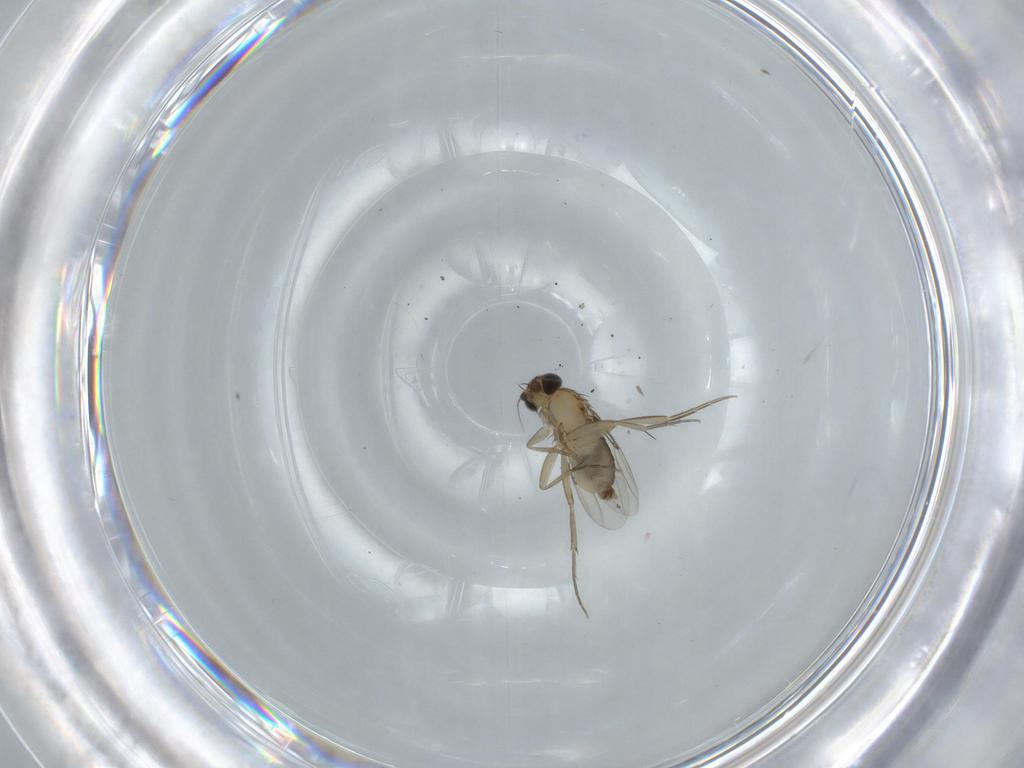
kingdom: Animalia
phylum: Arthropoda
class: Insecta
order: Diptera
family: Phoridae
